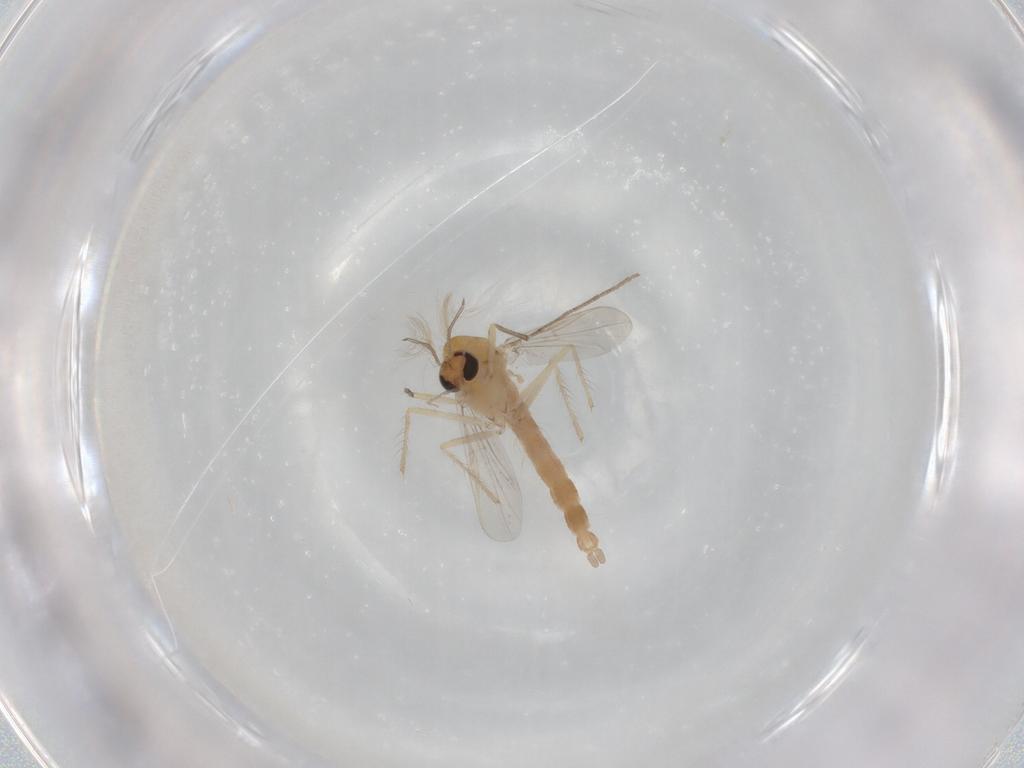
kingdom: Animalia
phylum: Arthropoda
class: Insecta
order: Diptera
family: Chironomidae
